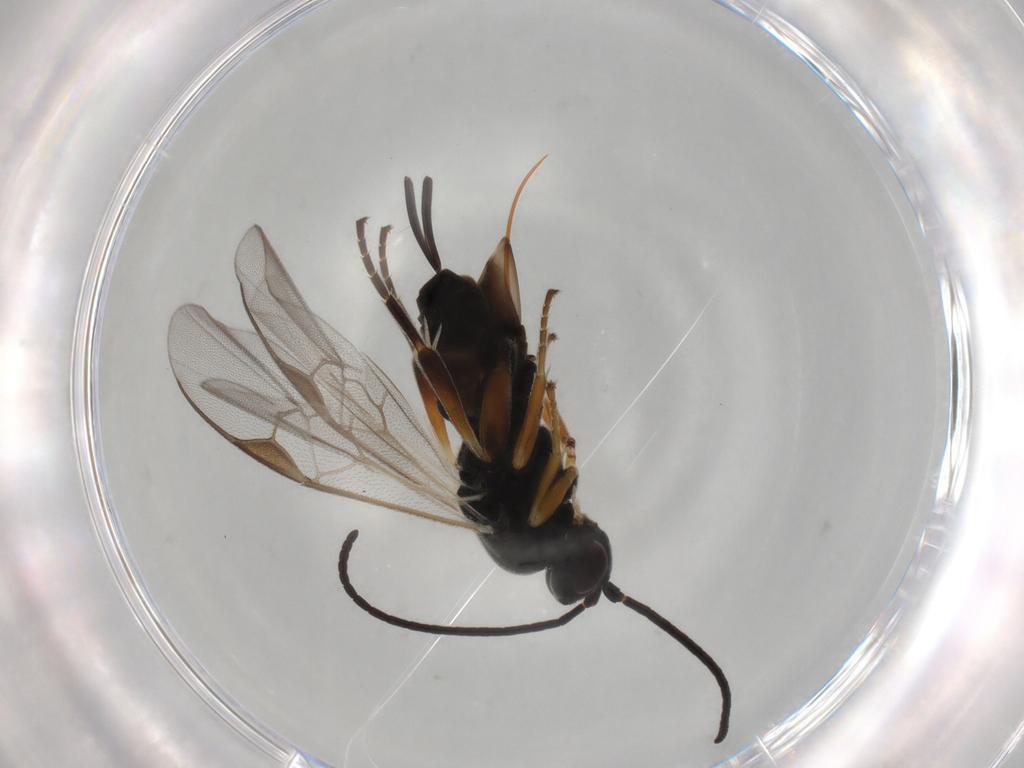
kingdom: Animalia
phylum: Arthropoda
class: Insecta
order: Hymenoptera
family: Braconidae
